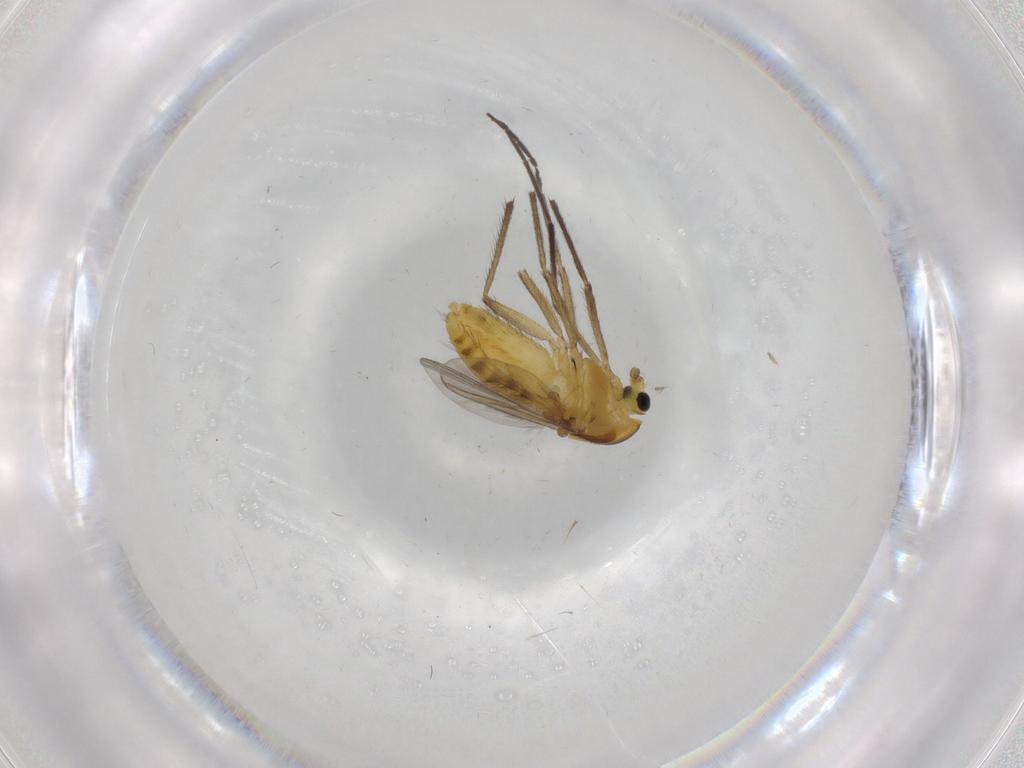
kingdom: Animalia
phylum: Arthropoda
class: Insecta
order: Diptera
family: Chironomidae
